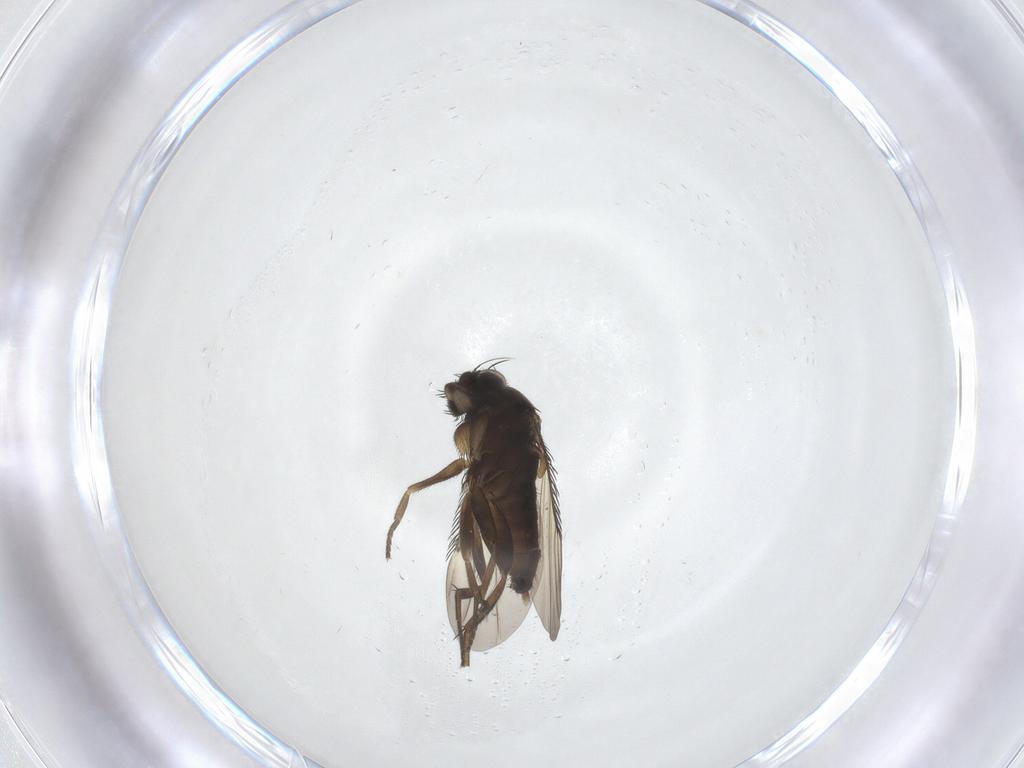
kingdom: Animalia
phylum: Arthropoda
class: Insecta
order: Diptera
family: Phoridae
